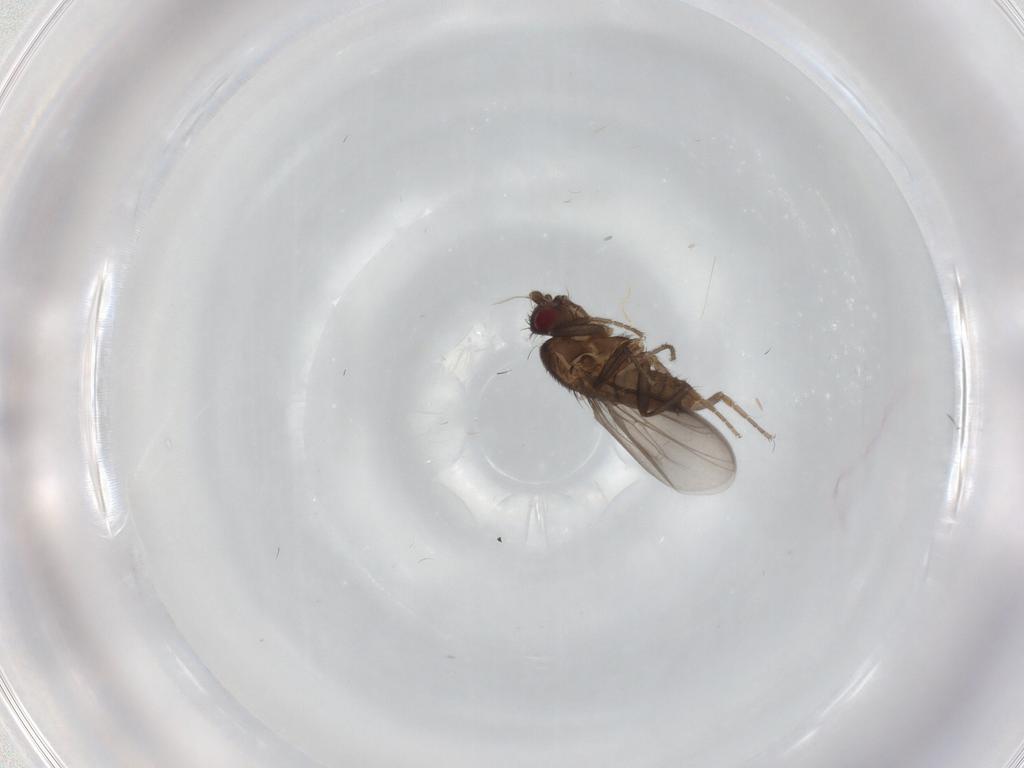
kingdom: Animalia
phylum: Arthropoda
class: Insecta
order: Diptera
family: Sphaeroceridae
